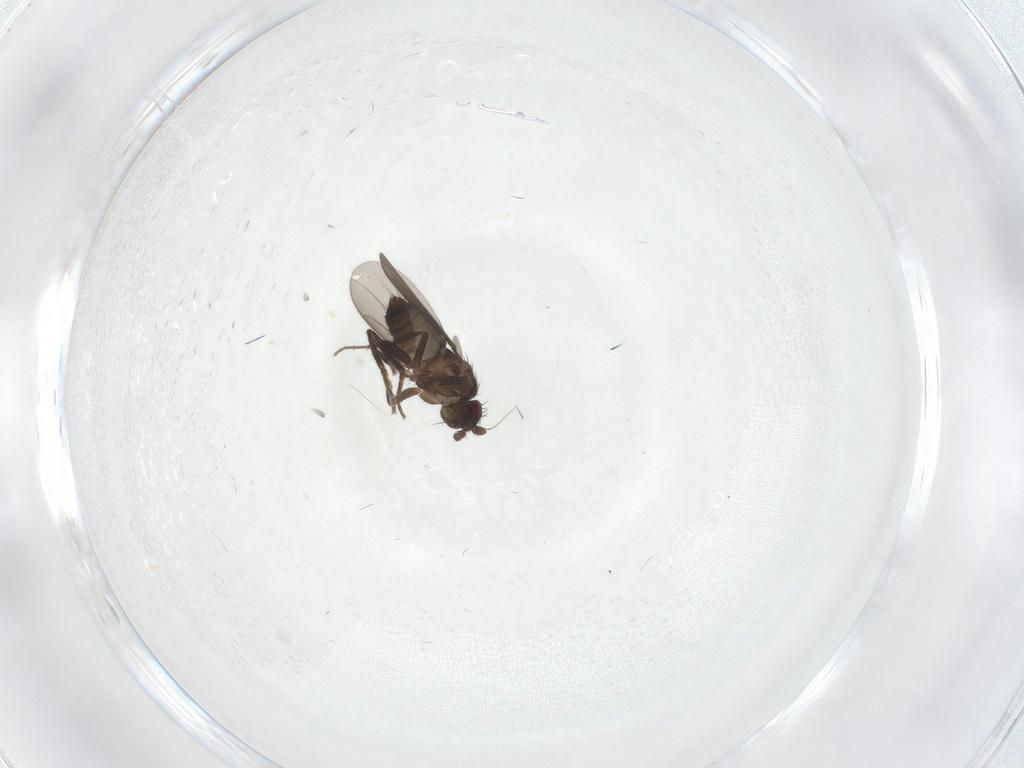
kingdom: Animalia
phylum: Arthropoda
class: Insecta
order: Diptera
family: Sphaeroceridae
